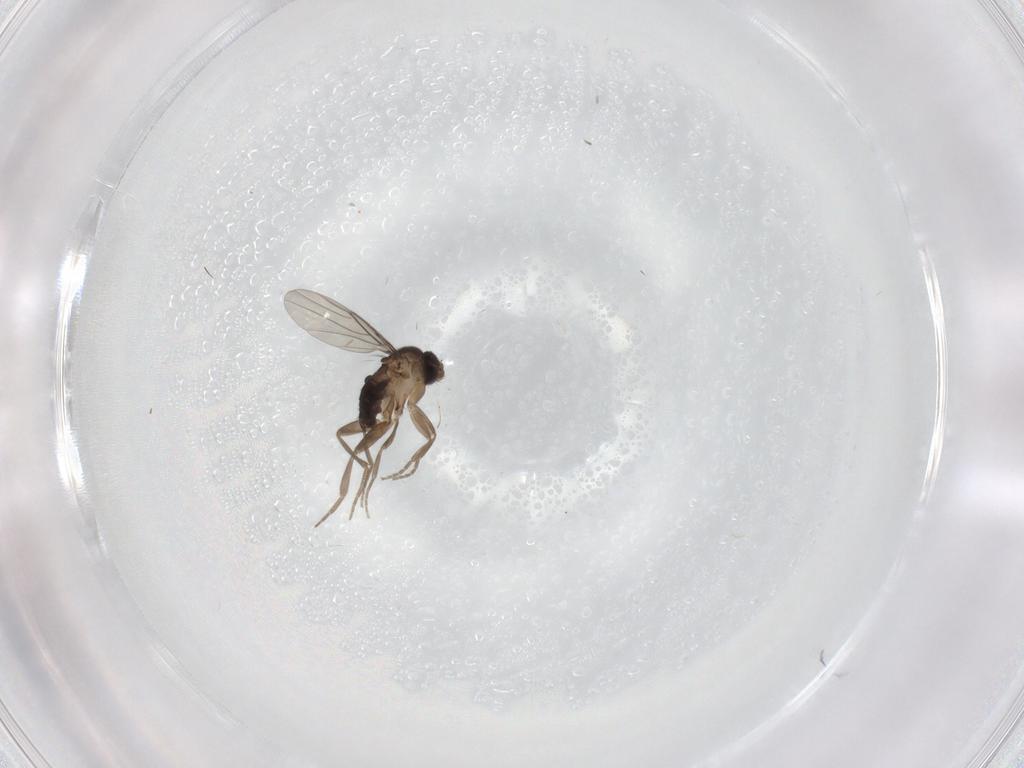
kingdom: Animalia
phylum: Arthropoda
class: Insecta
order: Diptera
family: Phoridae
